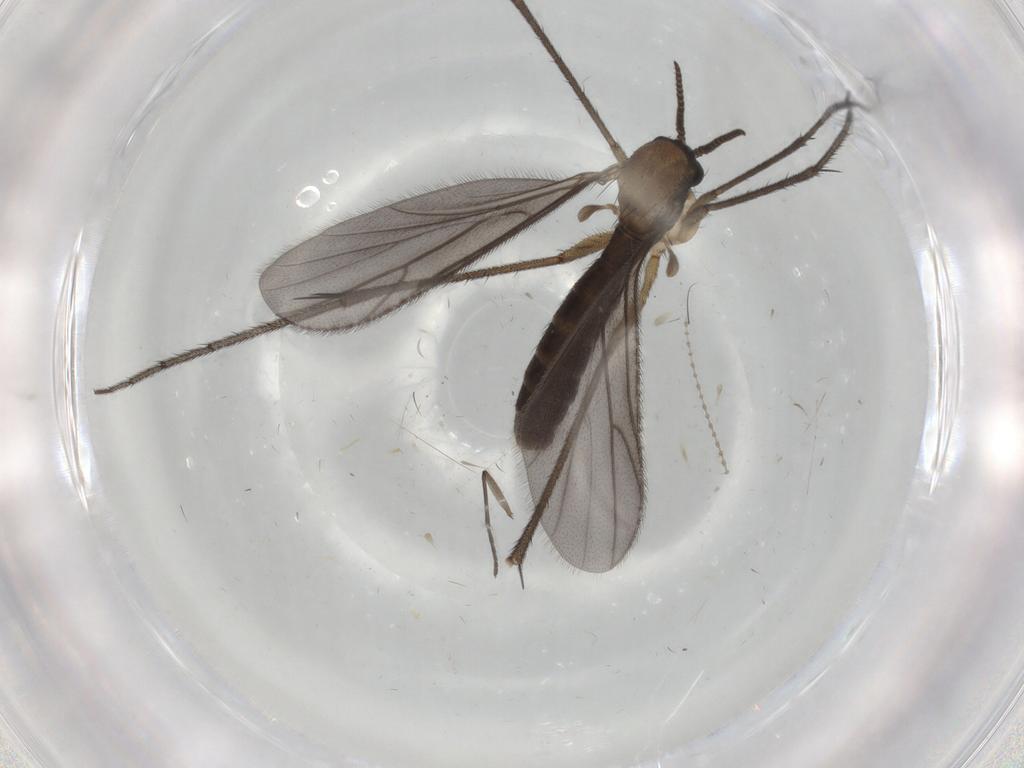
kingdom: Animalia
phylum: Arthropoda
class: Insecta
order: Diptera
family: Ditomyiidae
